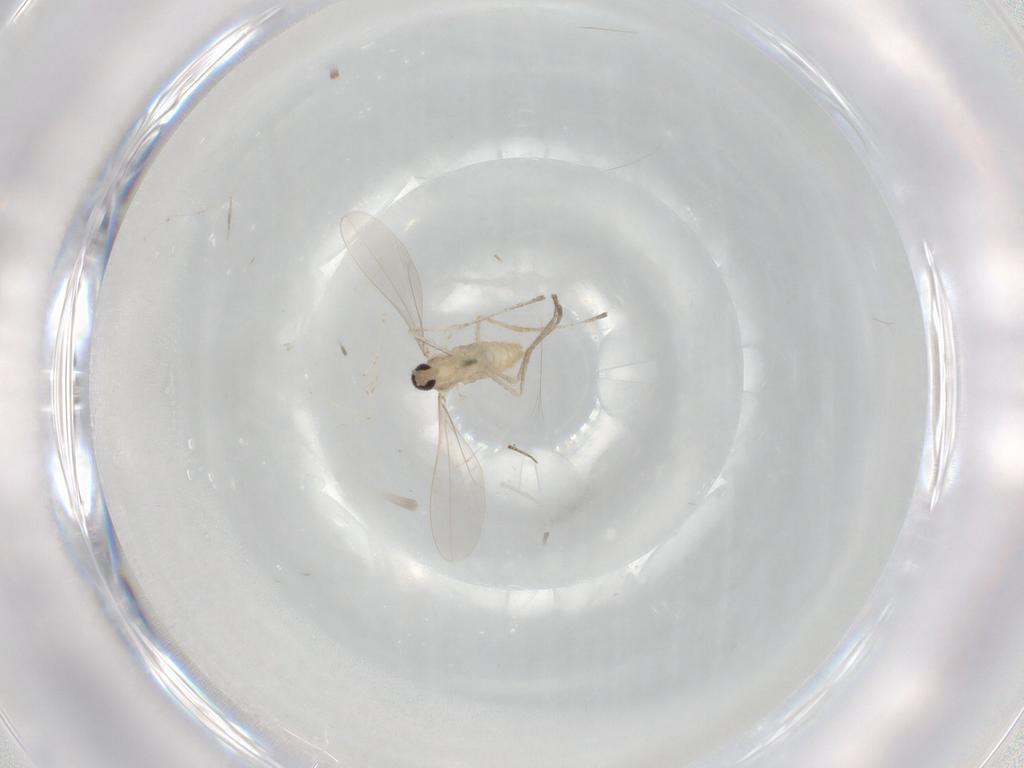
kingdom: Animalia
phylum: Arthropoda
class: Insecta
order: Diptera
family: Cecidomyiidae
